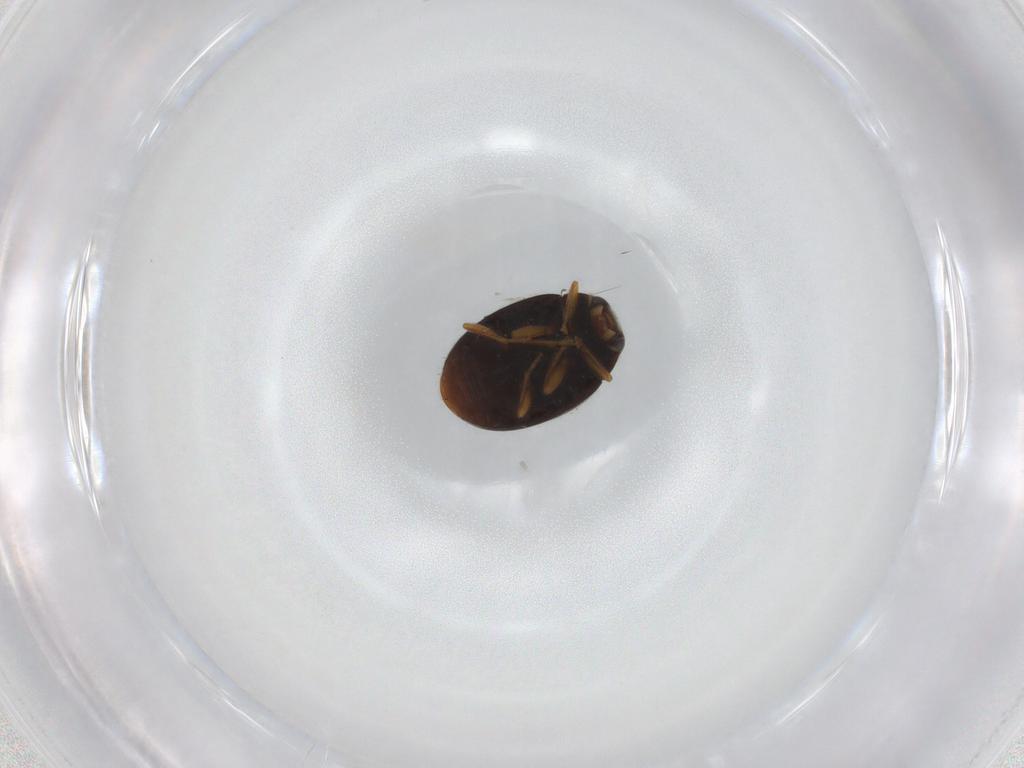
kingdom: Animalia
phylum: Arthropoda
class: Insecta
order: Coleoptera
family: Coccinellidae
